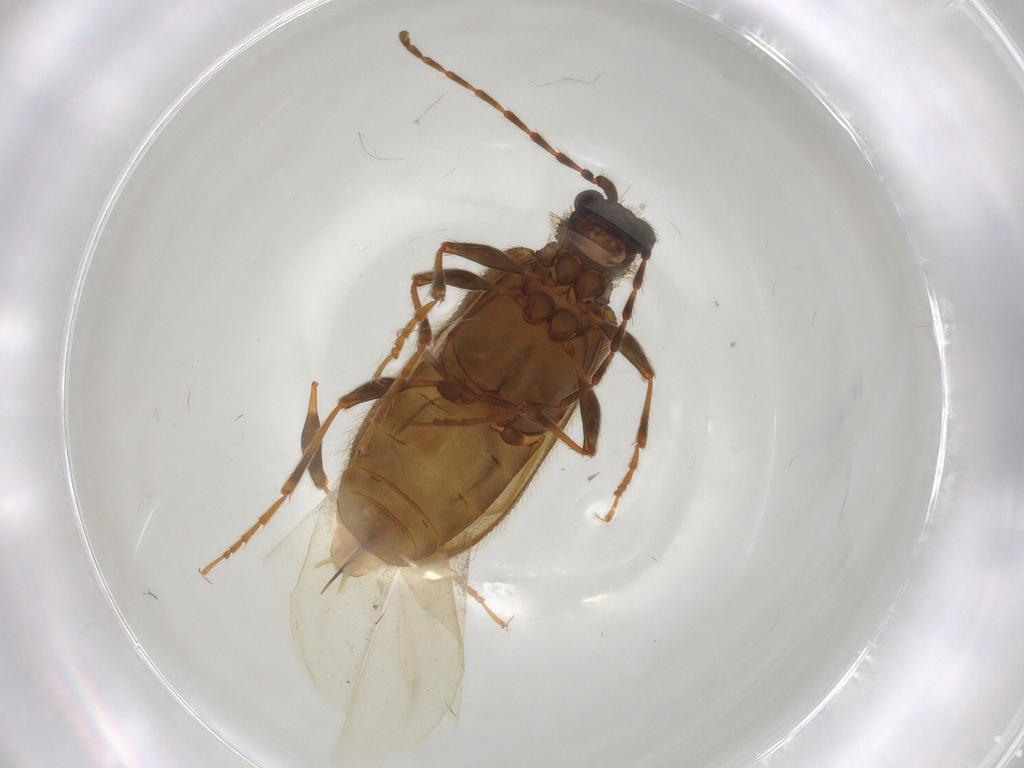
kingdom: Animalia
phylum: Arthropoda
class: Insecta
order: Coleoptera
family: Ptinidae
